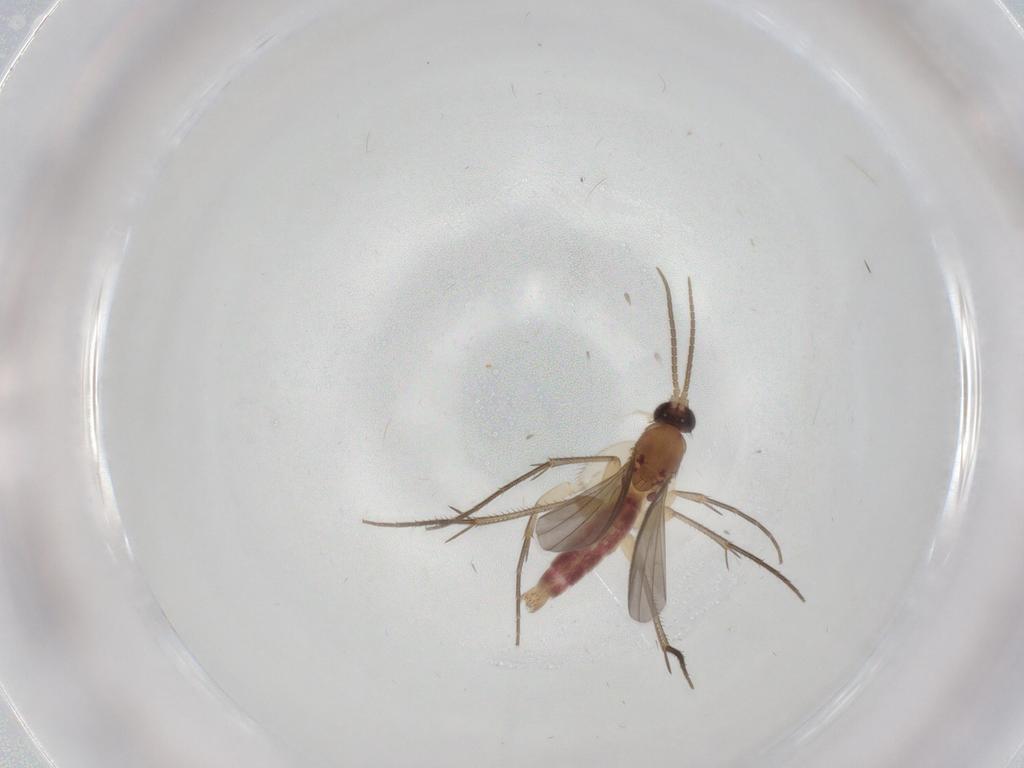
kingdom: Animalia
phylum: Arthropoda
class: Insecta
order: Diptera
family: Mycetophilidae
